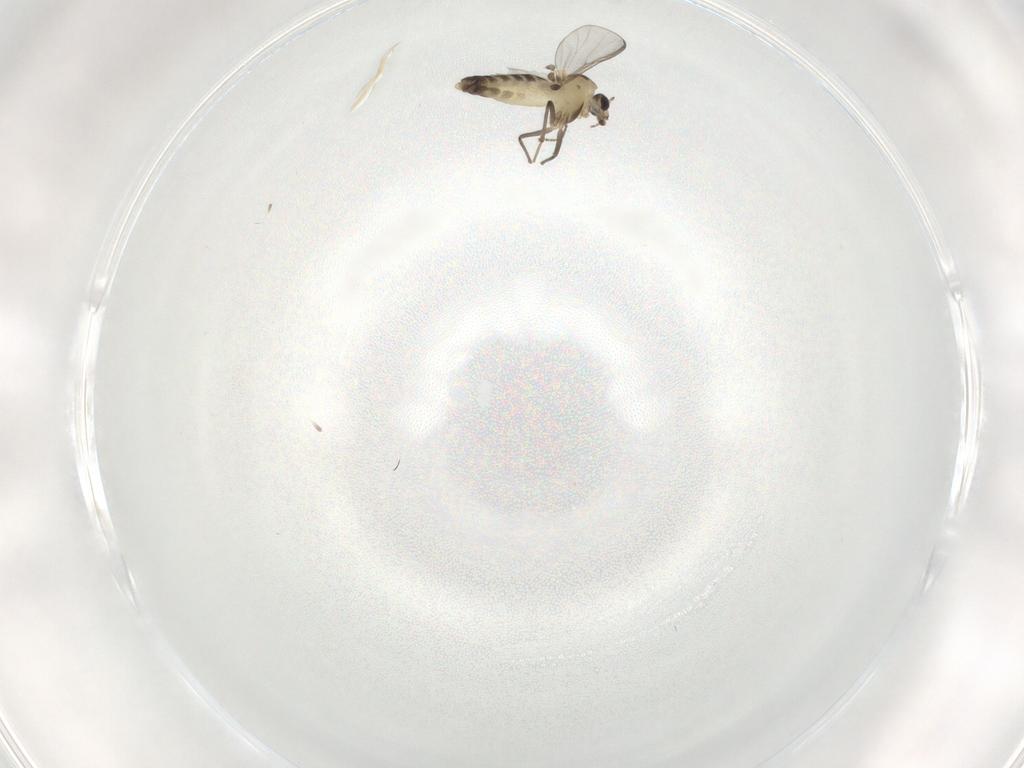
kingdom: Animalia
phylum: Arthropoda
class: Insecta
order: Diptera
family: Chironomidae
